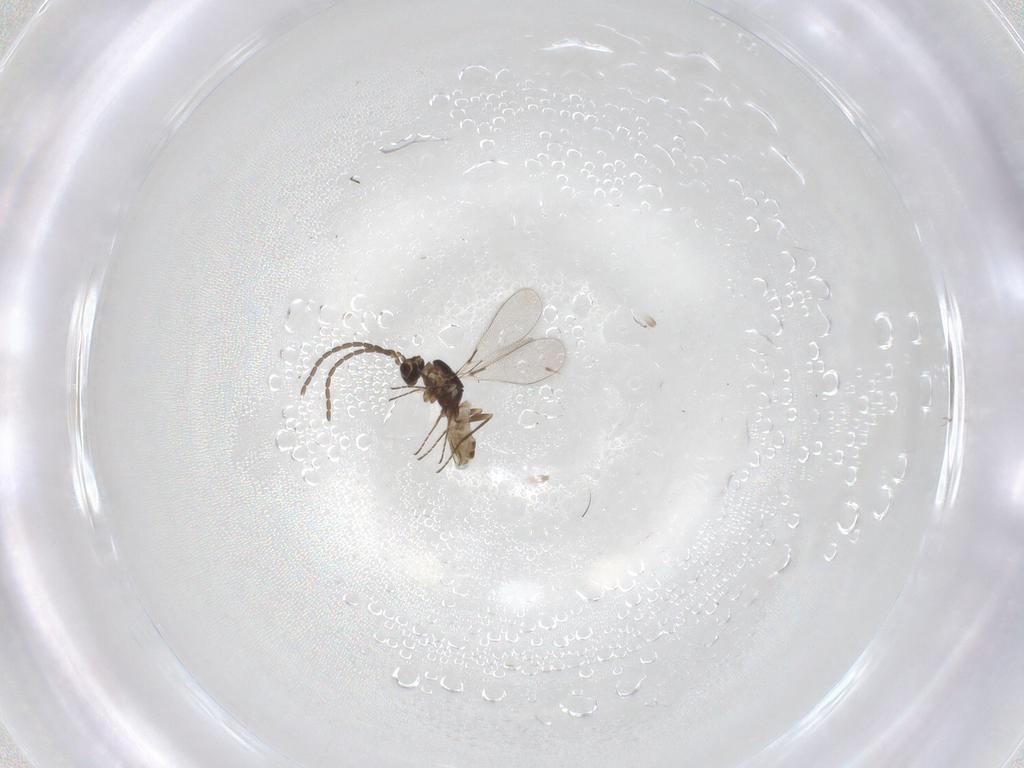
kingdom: Animalia
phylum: Arthropoda
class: Insecta
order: Hymenoptera
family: Mymaridae
